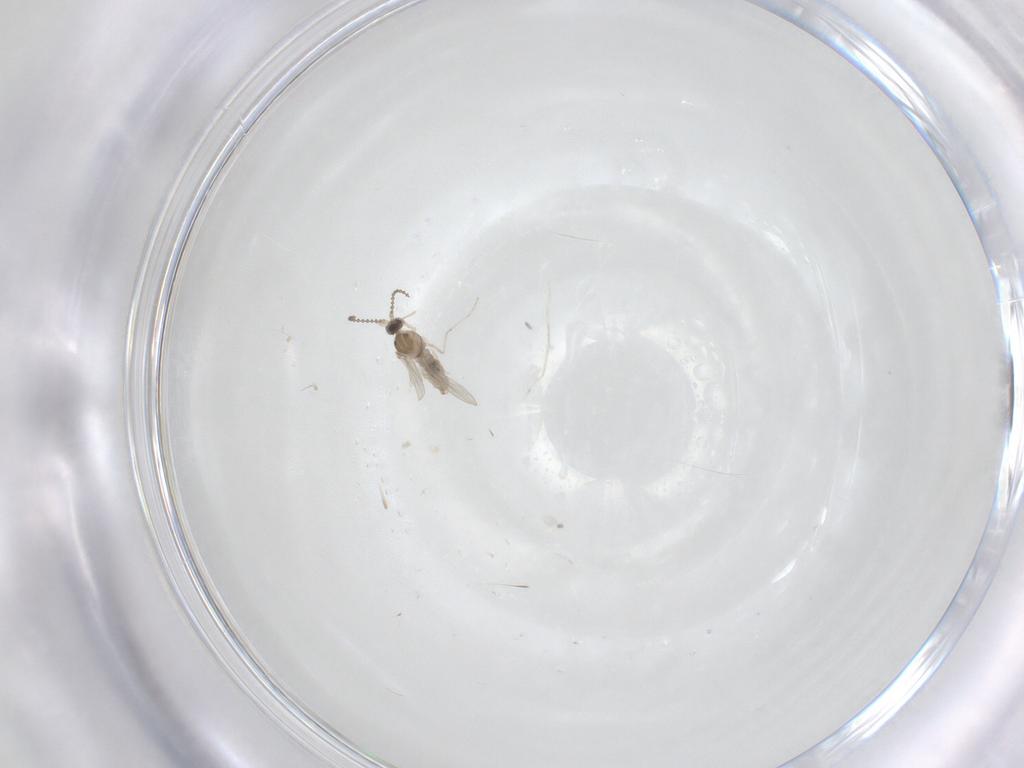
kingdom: Animalia
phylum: Arthropoda
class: Insecta
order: Diptera
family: Cecidomyiidae
